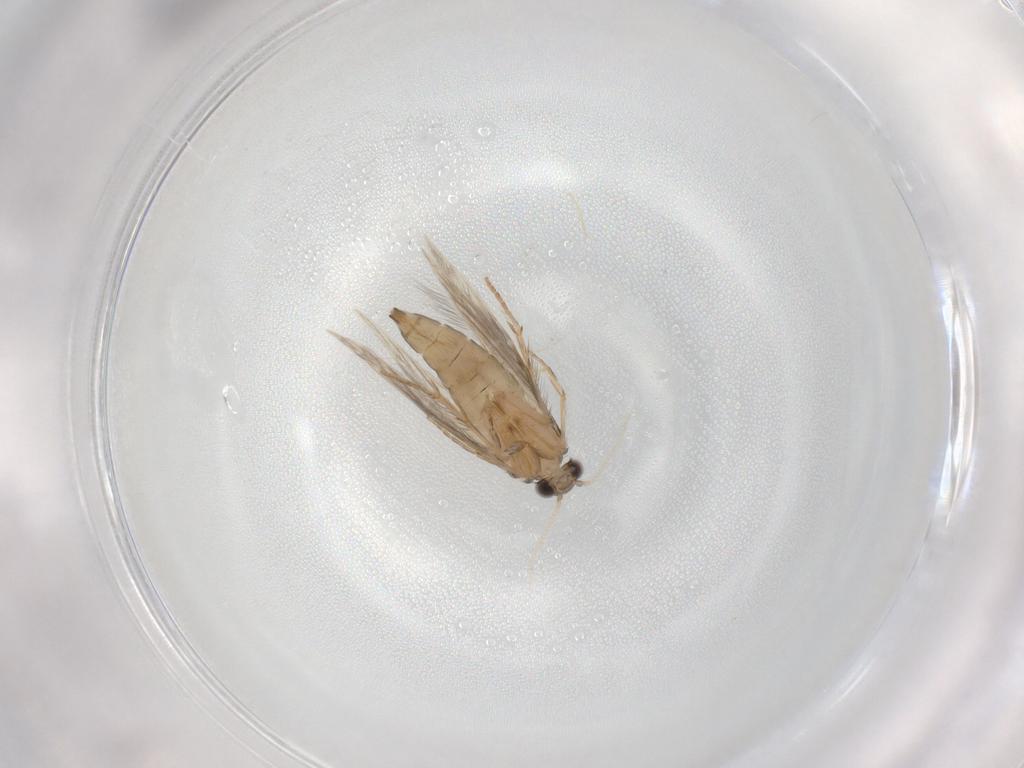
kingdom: Animalia
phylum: Arthropoda
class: Insecta
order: Trichoptera
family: Hydroptilidae
